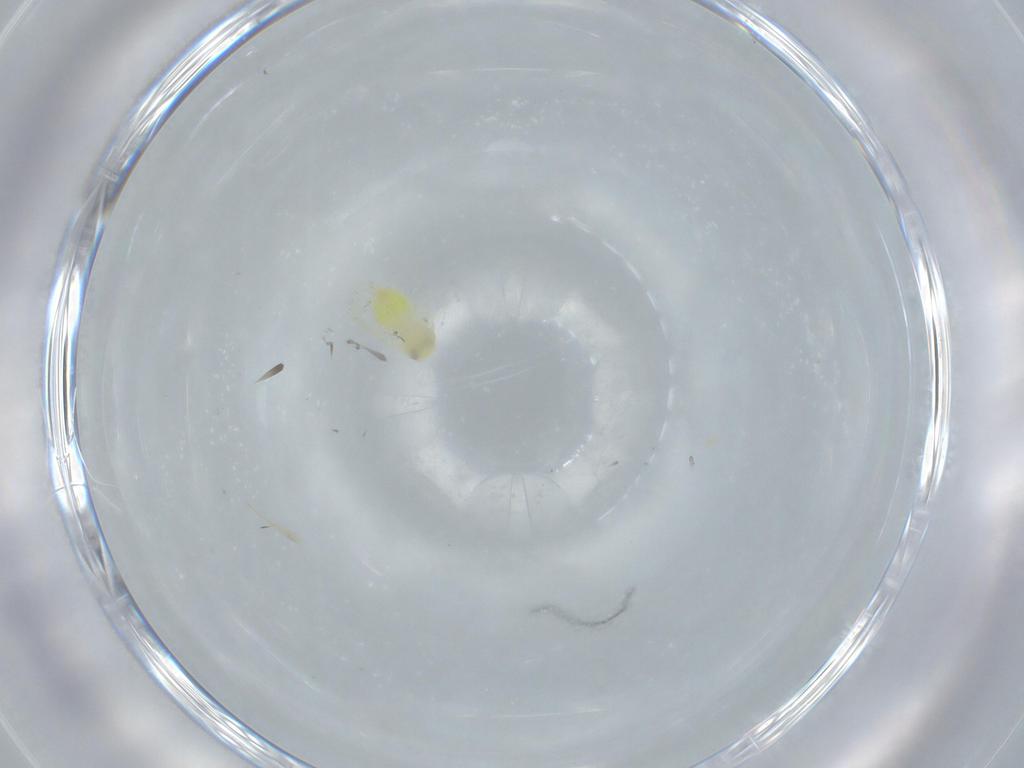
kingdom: Animalia
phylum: Arthropoda
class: Insecta
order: Hemiptera
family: Aleyrodidae
